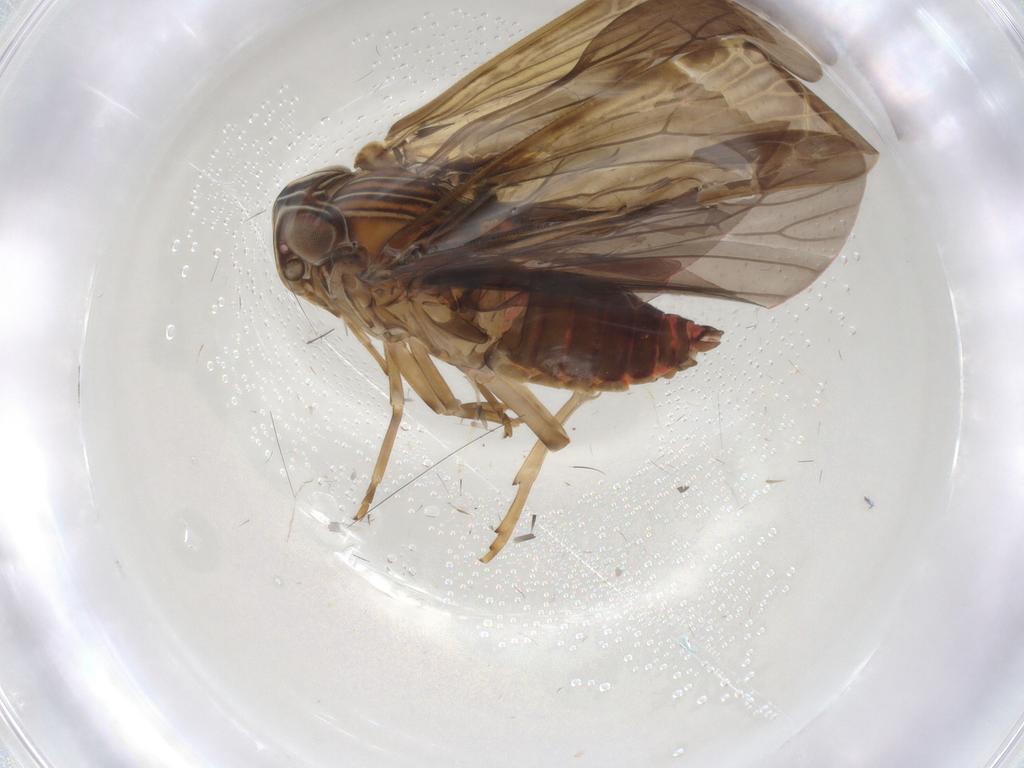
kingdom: Animalia
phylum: Arthropoda
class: Insecta
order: Hemiptera
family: Achilidae
